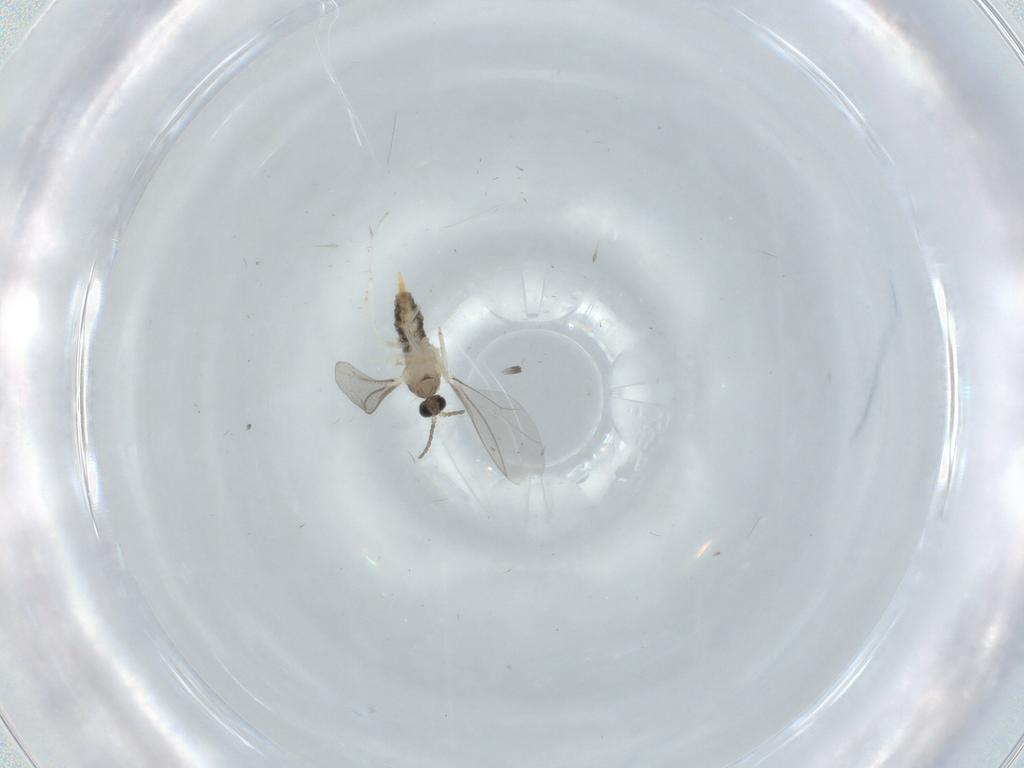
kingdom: Animalia
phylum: Arthropoda
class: Insecta
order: Diptera
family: Phoridae
